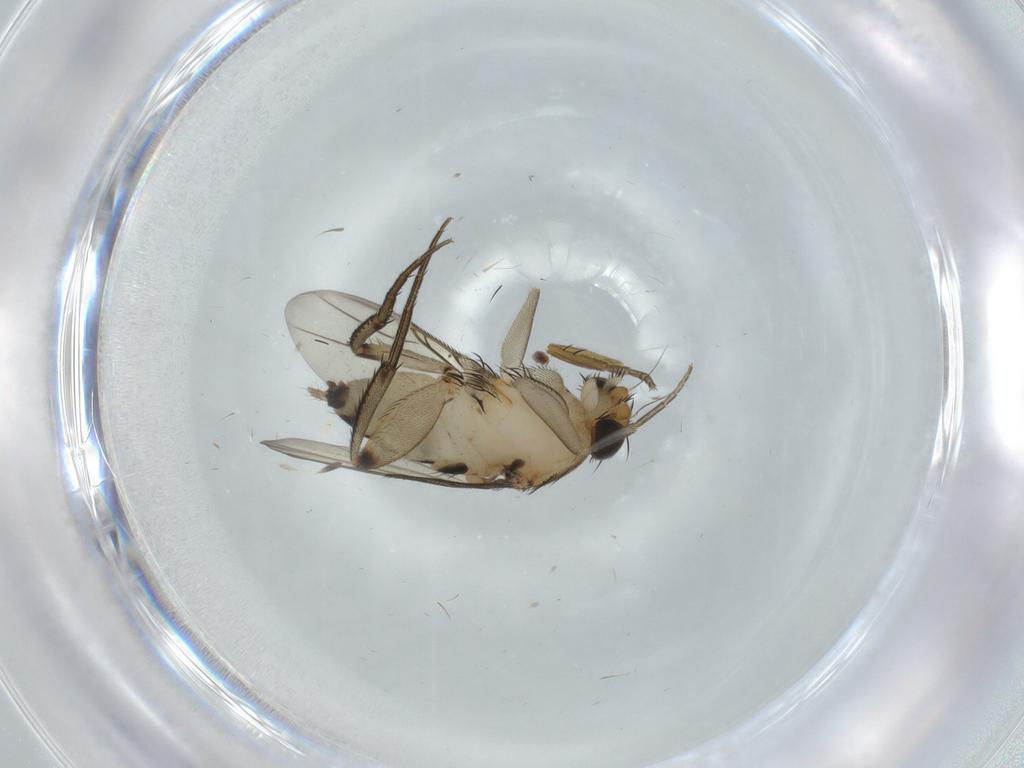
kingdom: Animalia
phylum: Arthropoda
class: Insecta
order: Diptera
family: Phoridae
